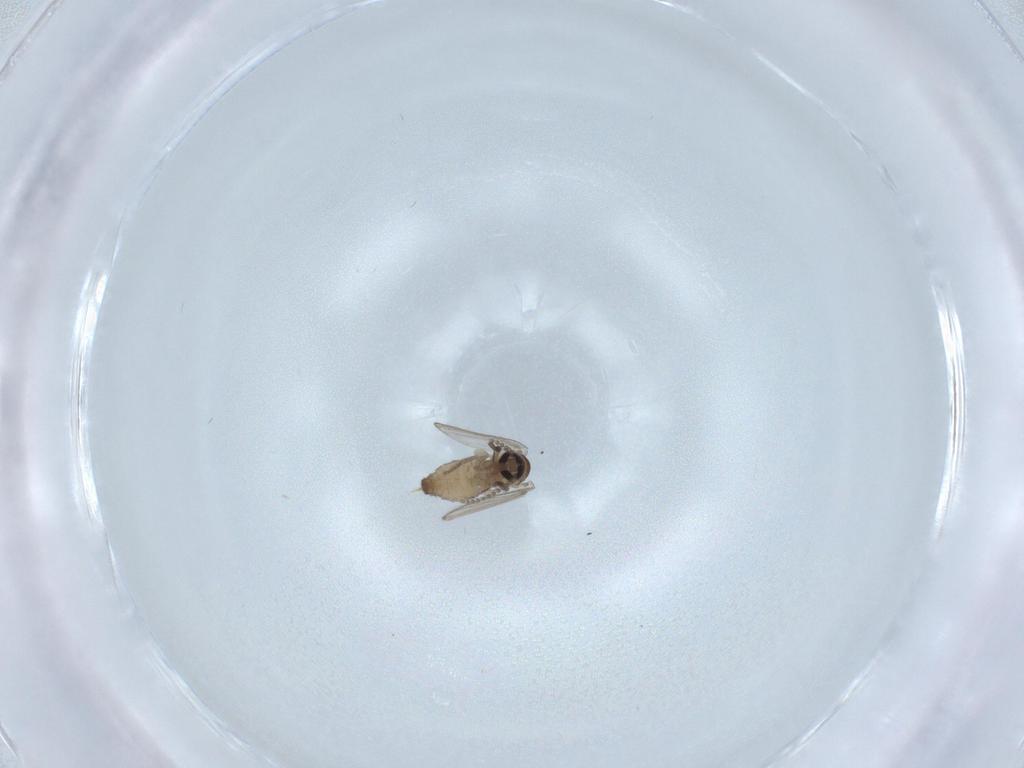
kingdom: Animalia
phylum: Arthropoda
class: Insecta
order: Diptera
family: Psychodidae
